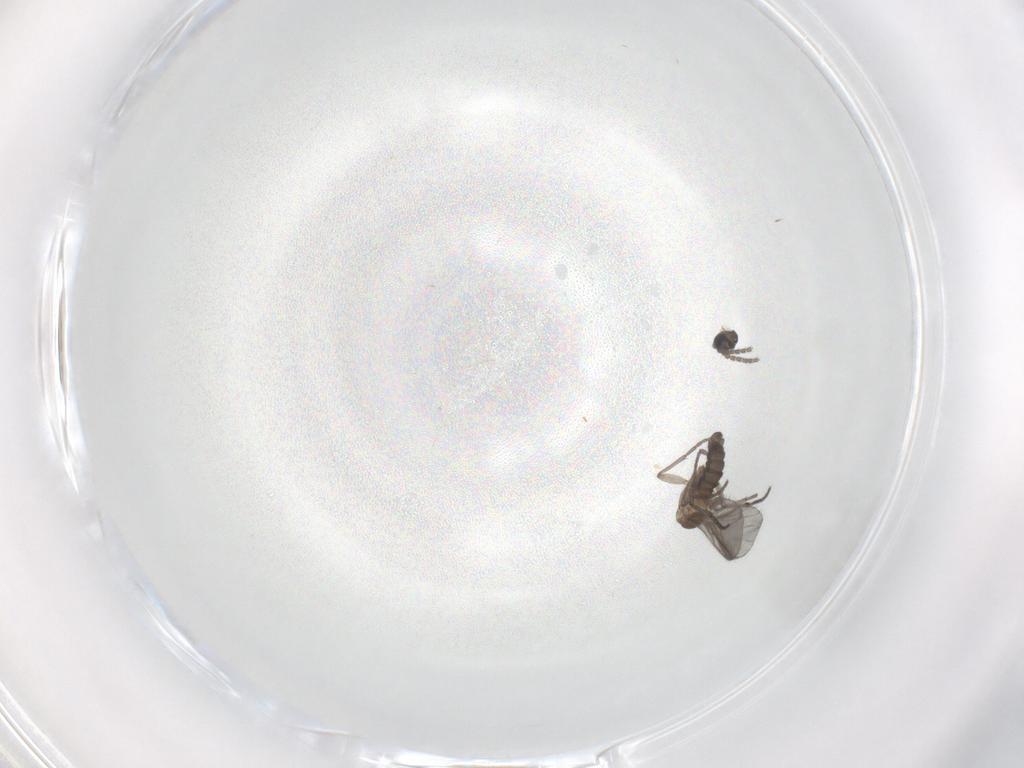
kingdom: Animalia
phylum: Arthropoda
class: Insecta
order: Diptera
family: Sciaridae
